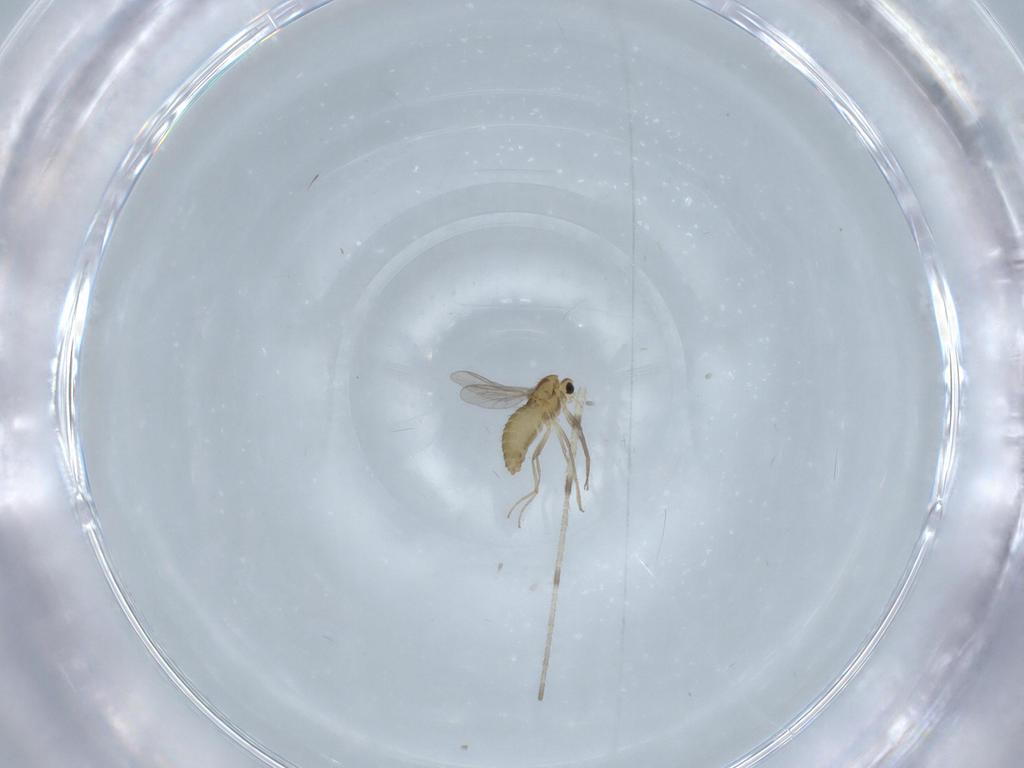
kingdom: Animalia
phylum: Arthropoda
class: Insecta
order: Diptera
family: Chironomidae
